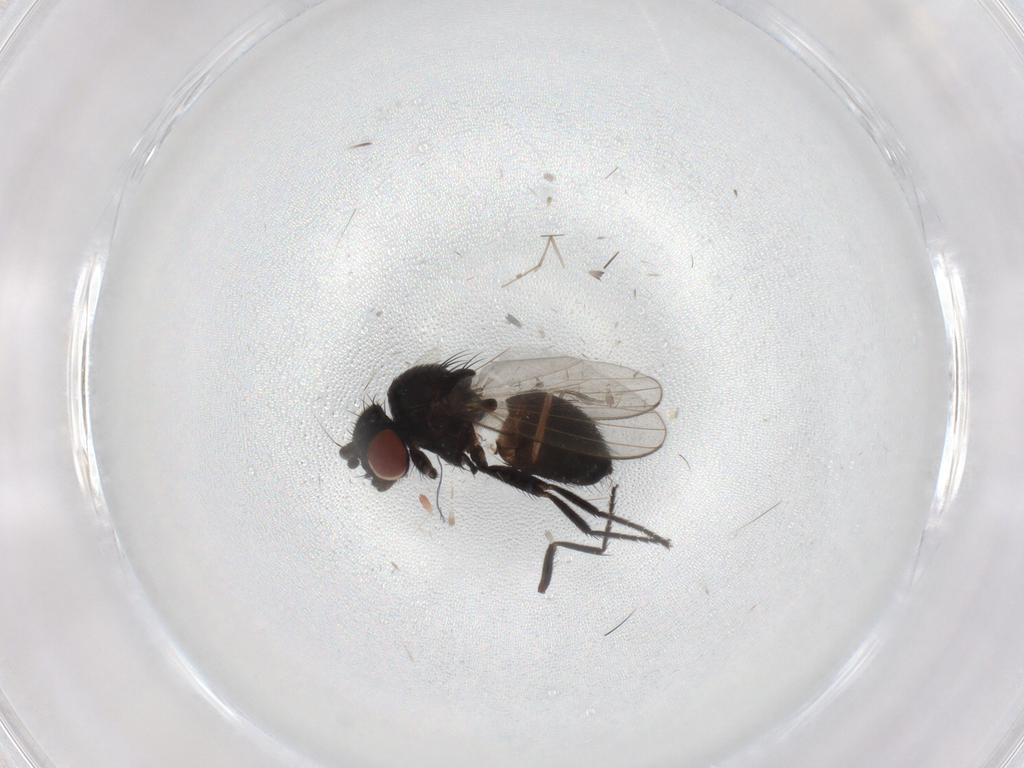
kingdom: Animalia
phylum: Arthropoda
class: Insecta
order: Diptera
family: Milichiidae
